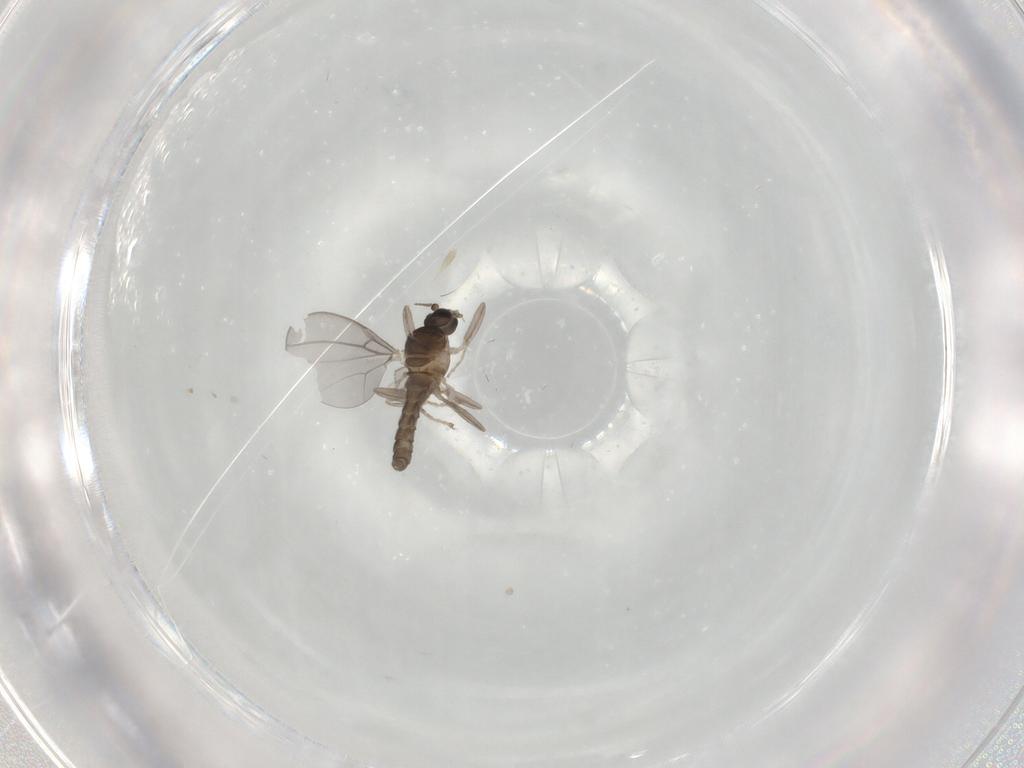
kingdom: Animalia
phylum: Arthropoda
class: Insecta
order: Diptera
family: Cecidomyiidae
